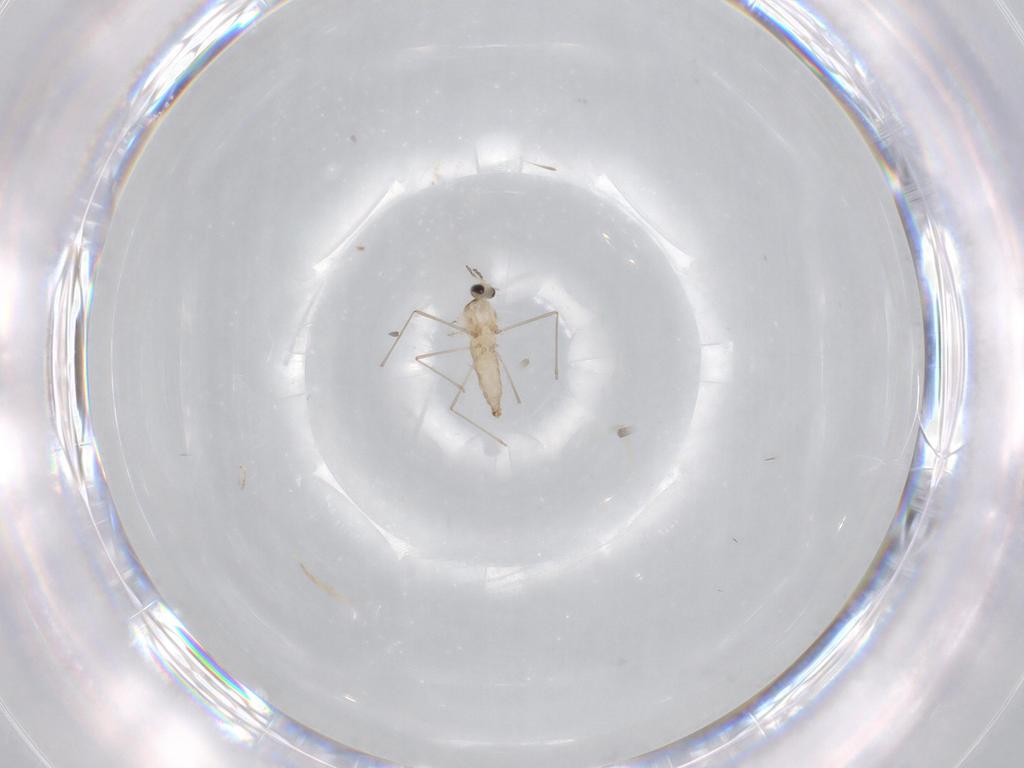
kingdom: Animalia
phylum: Arthropoda
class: Insecta
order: Diptera
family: Cecidomyiidae
